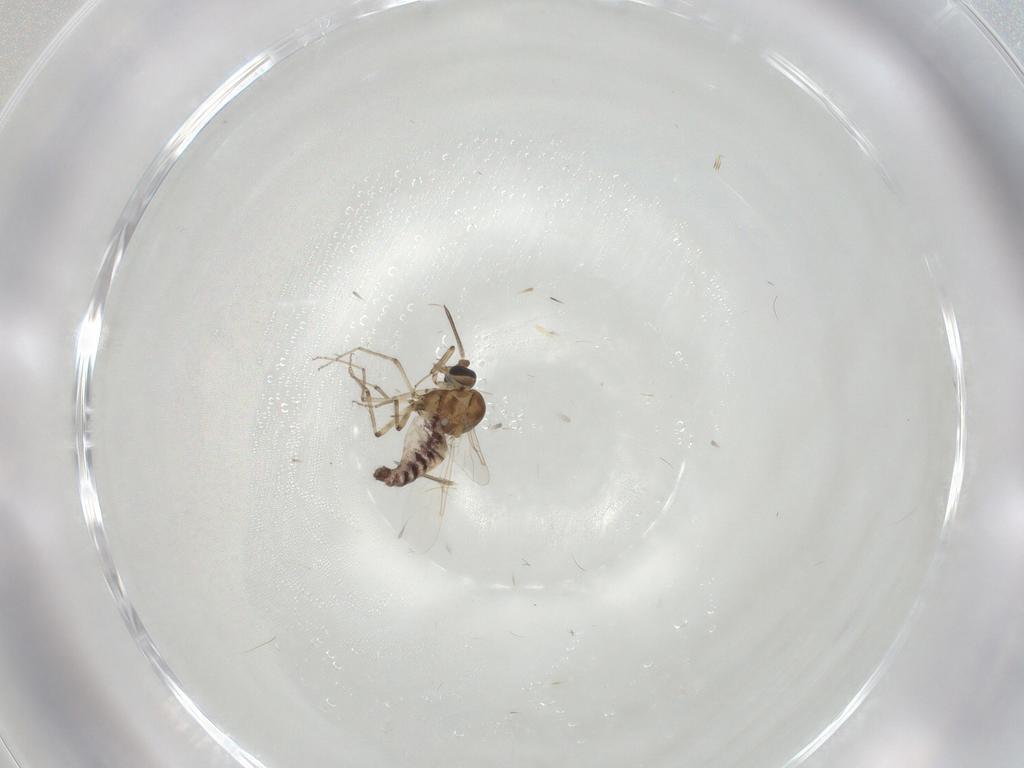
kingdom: Animalia
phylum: Arthropoda
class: Insecta
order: Diptera
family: Ceratopogonidae
